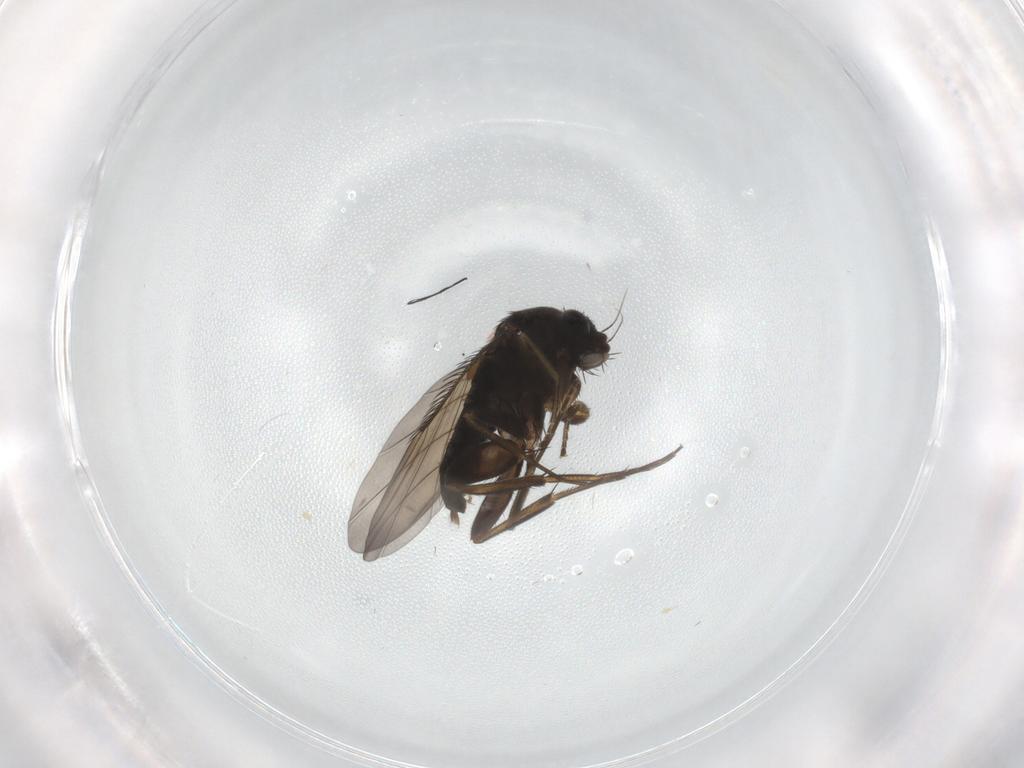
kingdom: Animalia
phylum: Arthropoda
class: Insecta
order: Diptera
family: Phoridae
